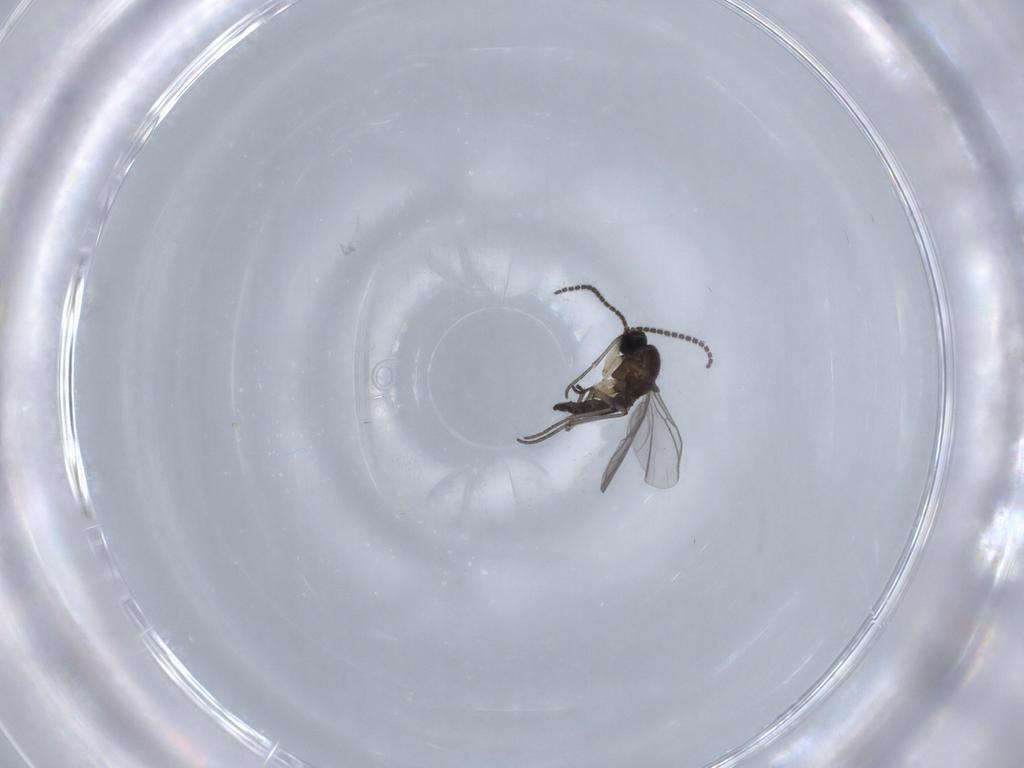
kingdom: Animalia
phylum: Arthropoda
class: Insecta
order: Diptera
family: Sciaridae
